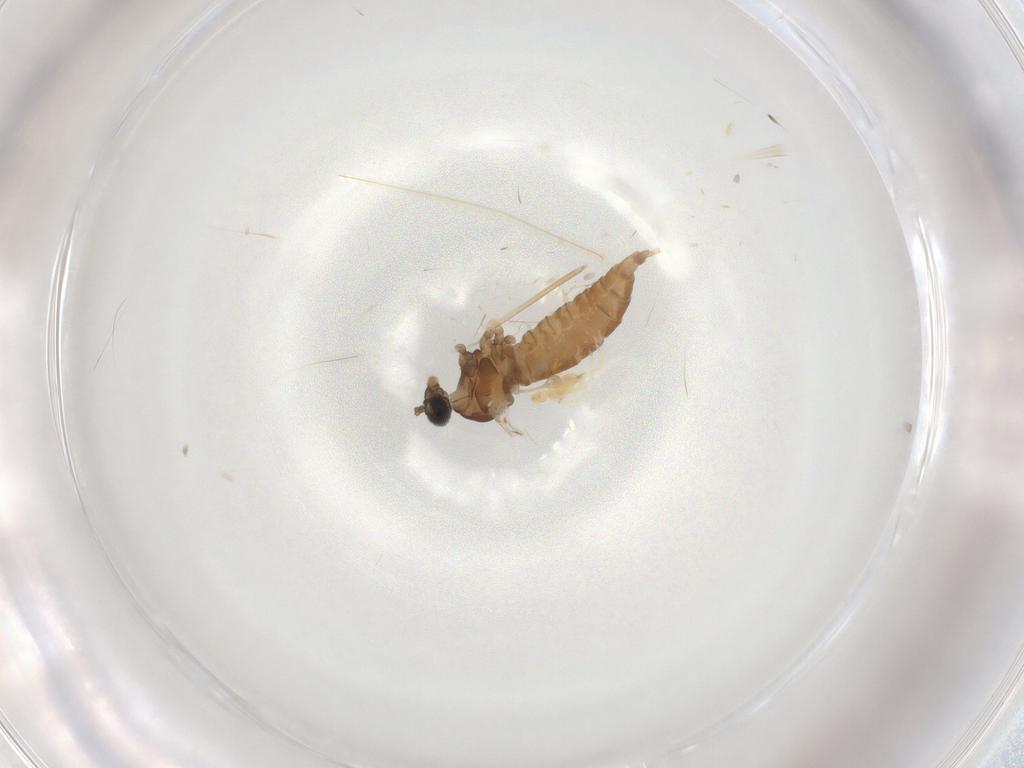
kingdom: Animalia
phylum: Arthropoda
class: Insecta
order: Diptera
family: Cecidomyiidae
